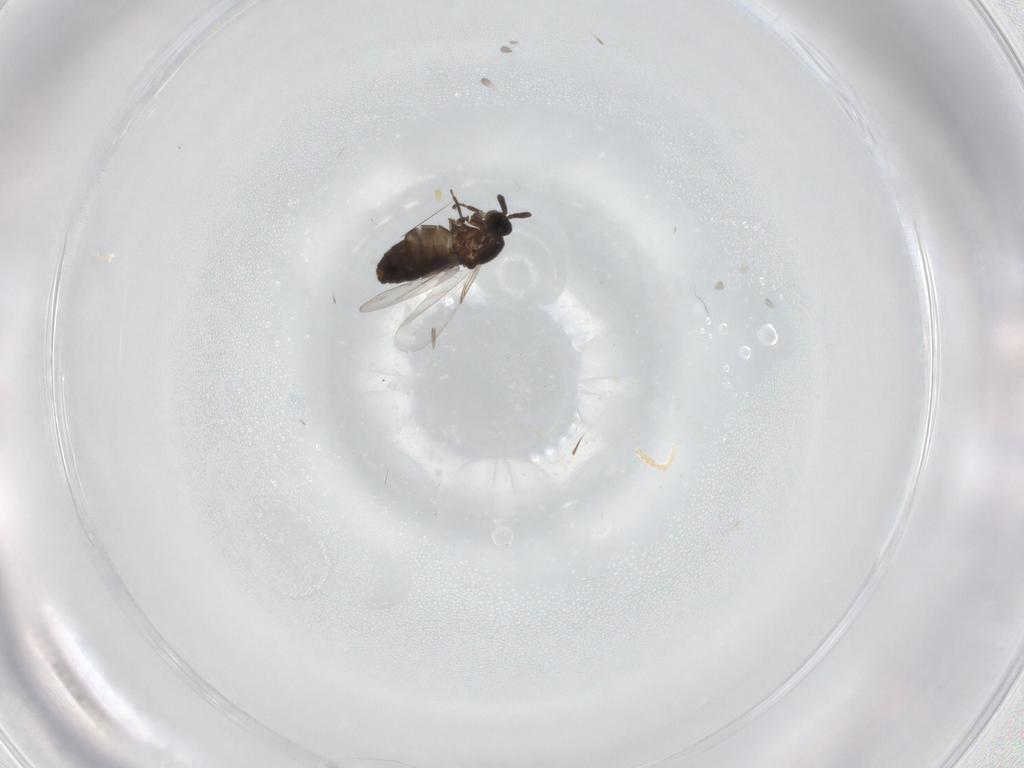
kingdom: Animalia
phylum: Arthropoda
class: Insecta
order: Diptera
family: Scatopsidae
